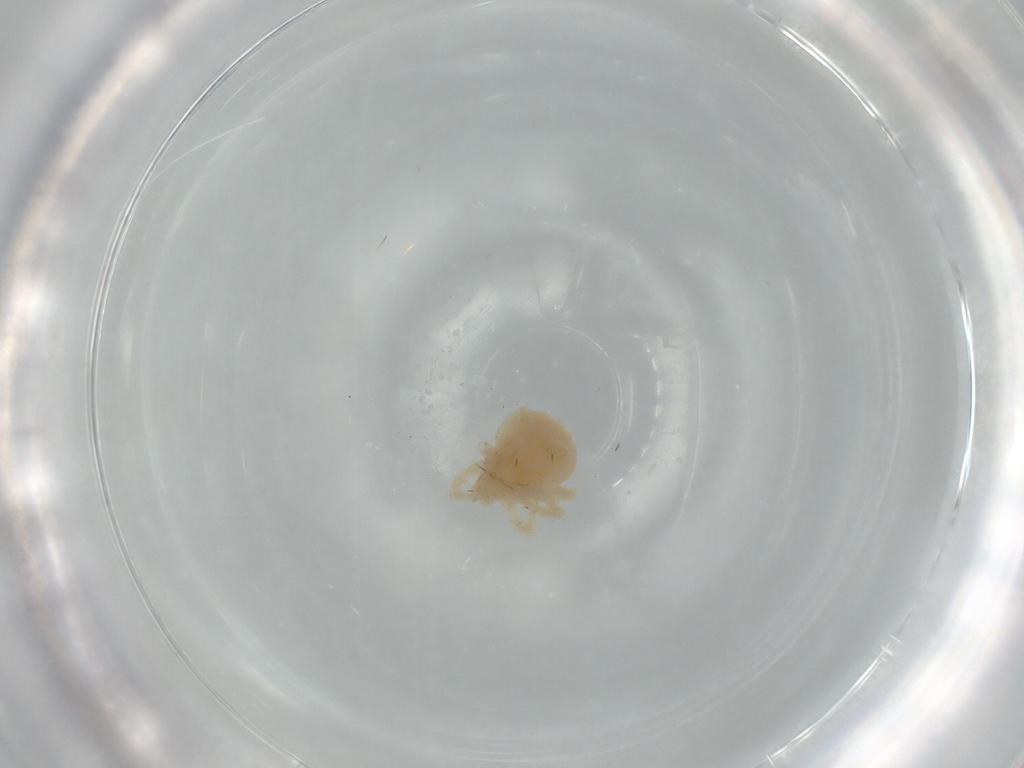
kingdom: Animalia
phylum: Arthropoda
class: Arachnida
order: Trombidiformes
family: Anystidae
